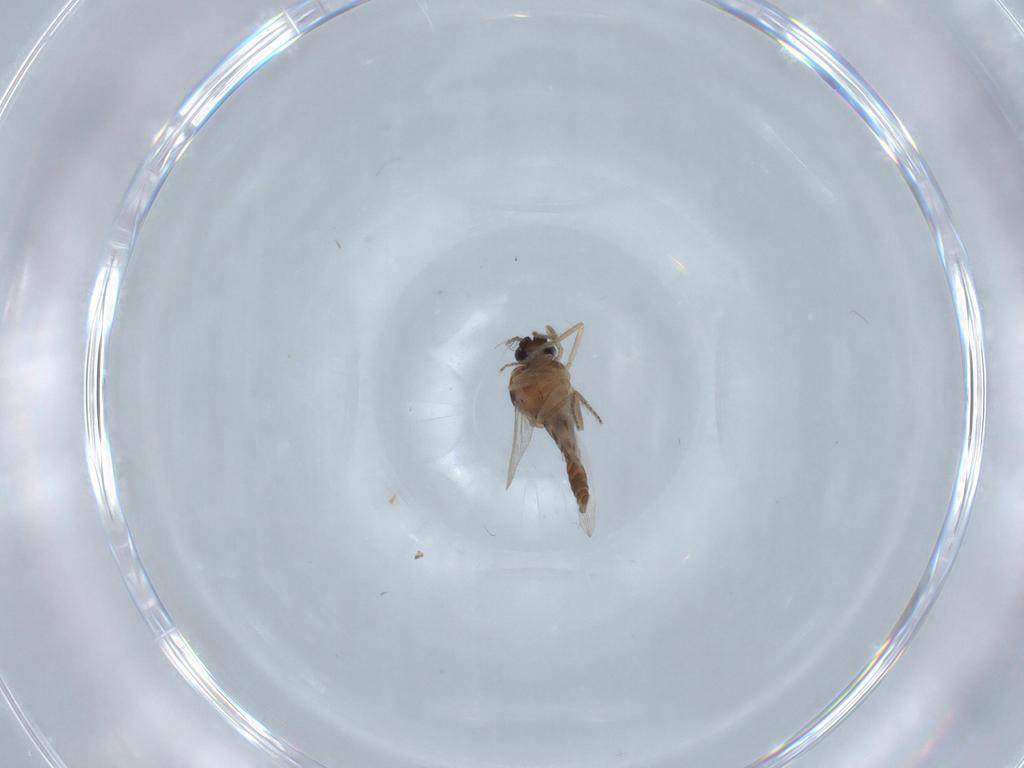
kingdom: Animalia
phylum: Arthropoda
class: Insecta
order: Diptera
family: Ceratopogonidae
